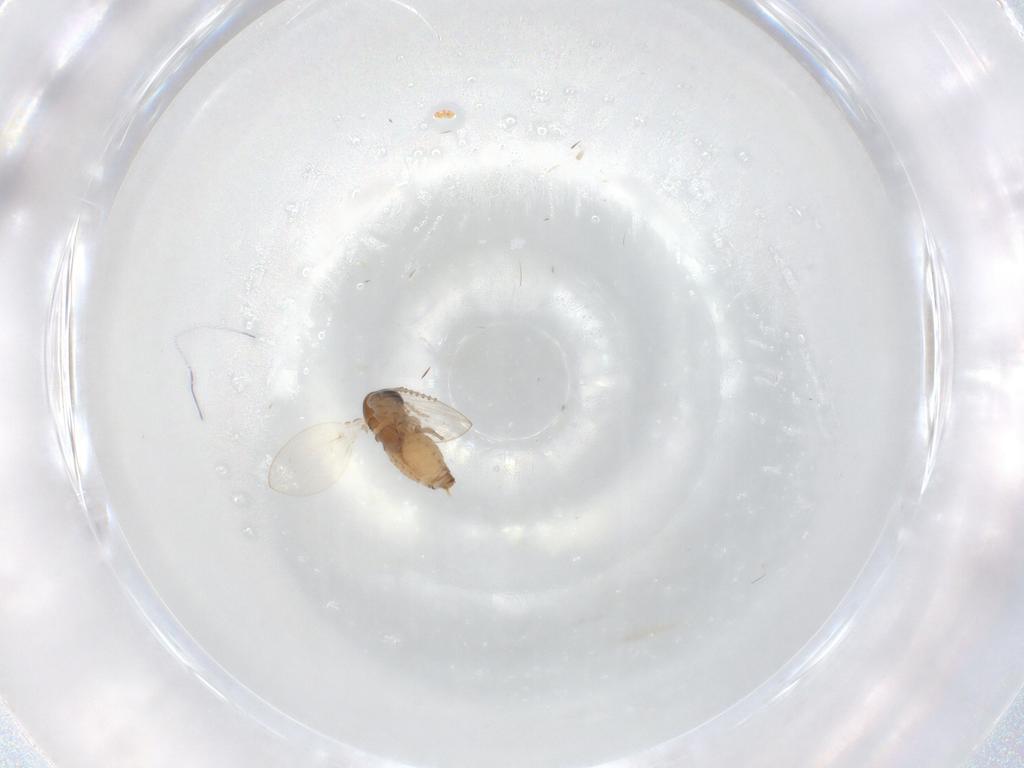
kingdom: Animalia
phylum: Arthropoda
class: Insecta
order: Diptera
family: Psychodidae
